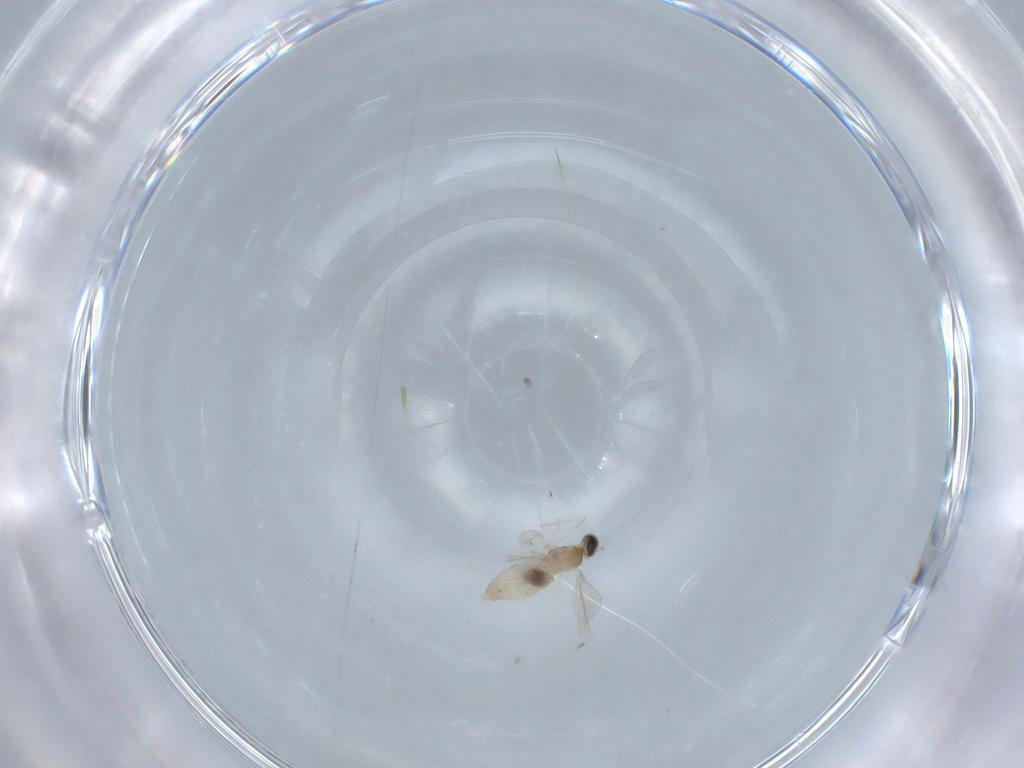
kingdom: Animalia
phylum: Arthropoda
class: Insecta
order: Diptera
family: Cecidomyiidae
